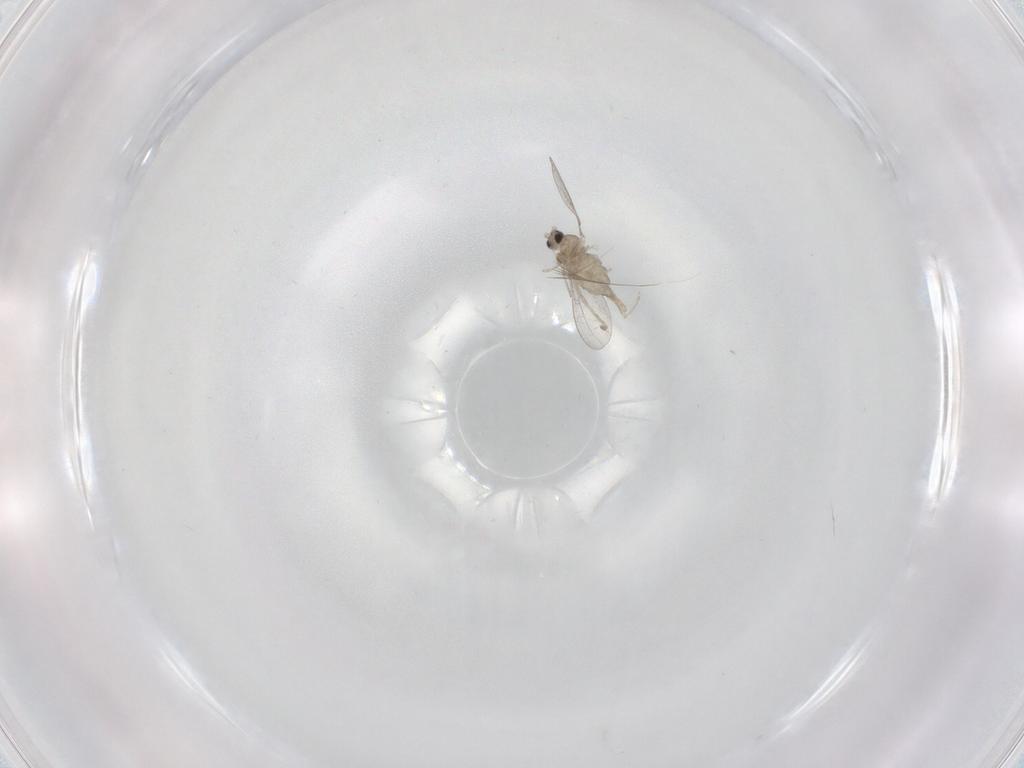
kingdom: Animalia
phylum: Arthropoda
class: Insecta
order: Diptera
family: Cecidomyiidae
